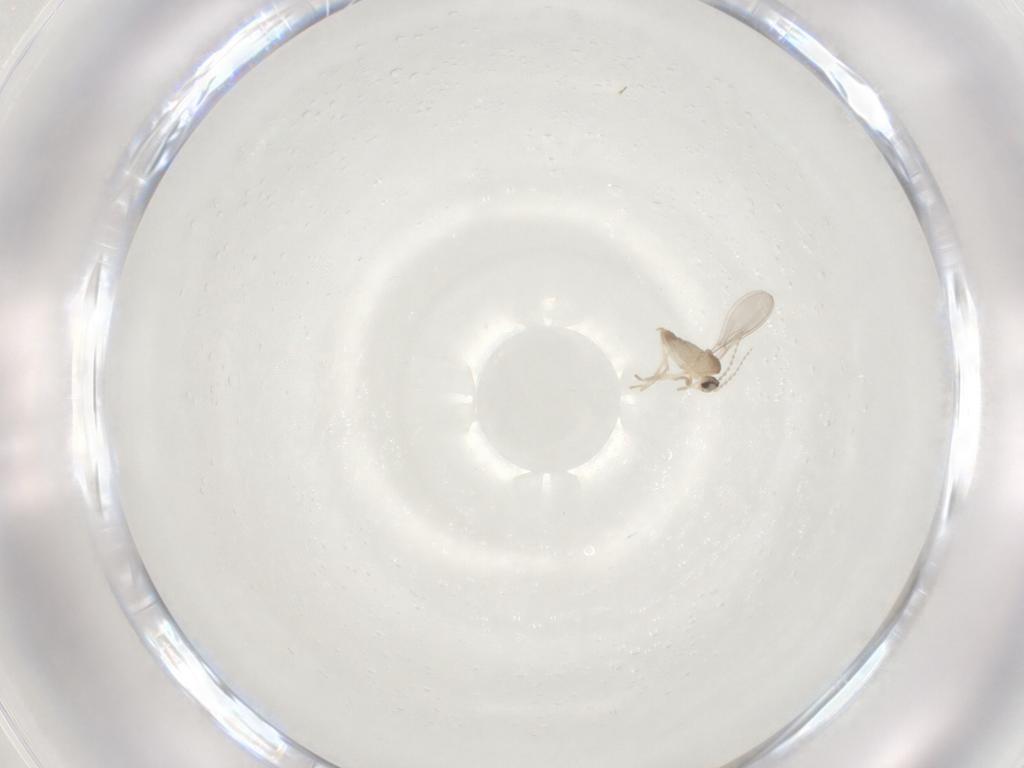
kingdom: Animalia
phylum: Arthropoda
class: Insecta
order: Diptera
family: Cecidomyiidae
